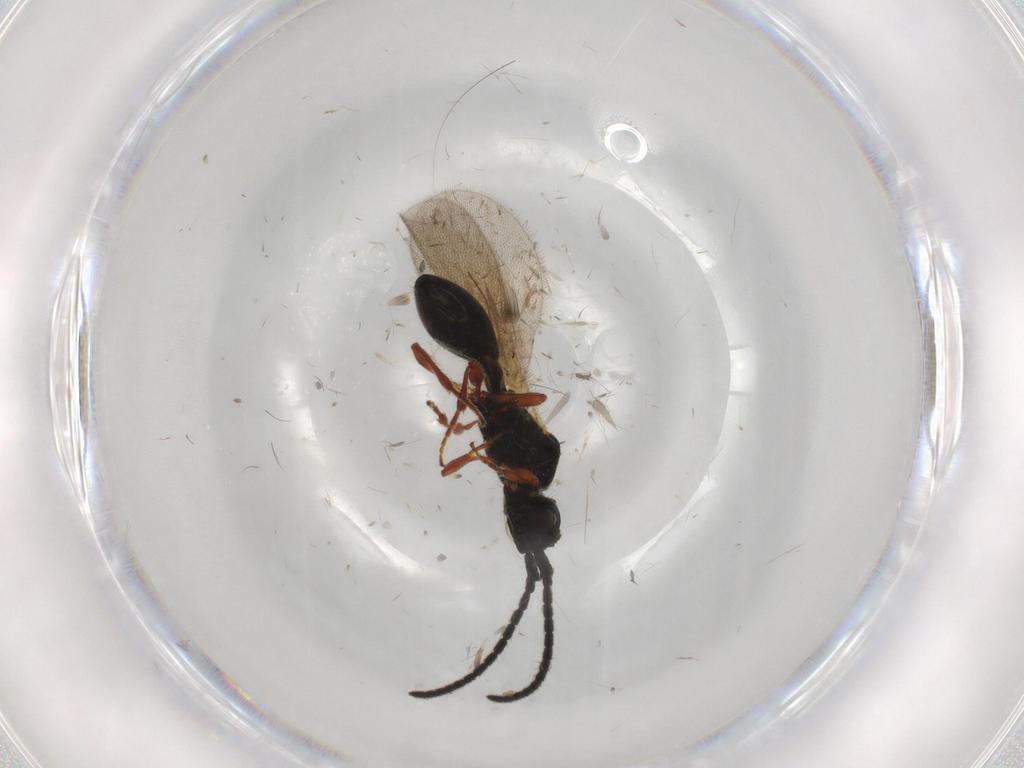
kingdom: Animalia
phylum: Arthropoda
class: Insecta
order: Hymenoptera
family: Diapriidae
